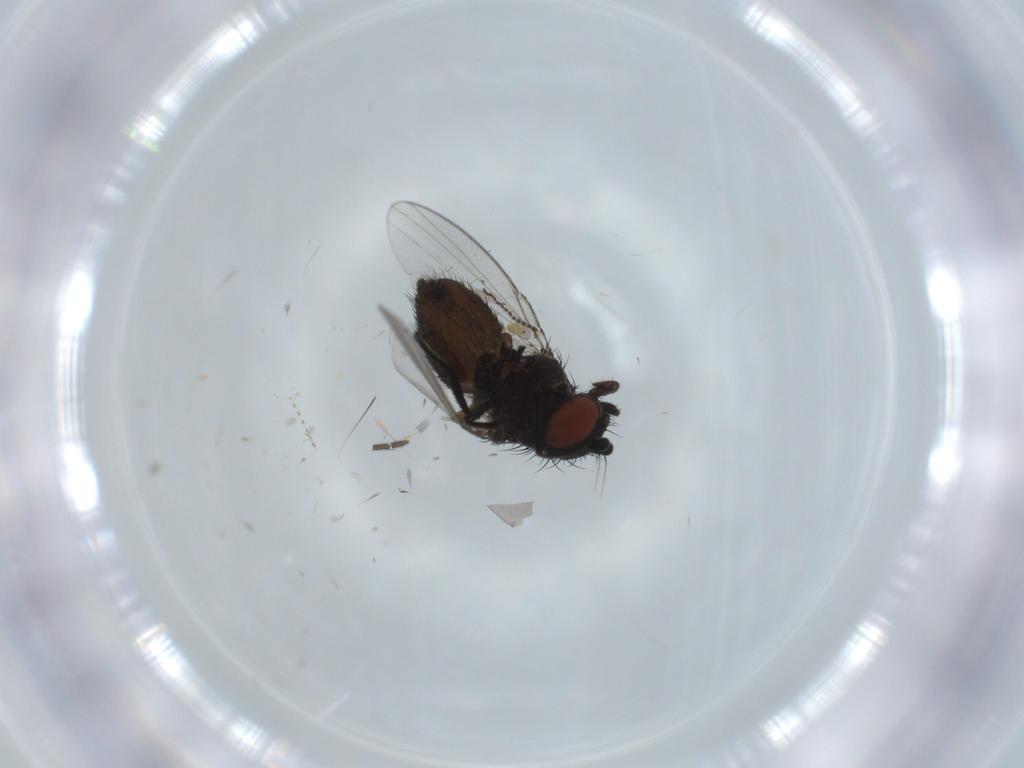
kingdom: Animalia
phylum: Arthropoda
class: Insecta
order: Diptera
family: Milichiidae
